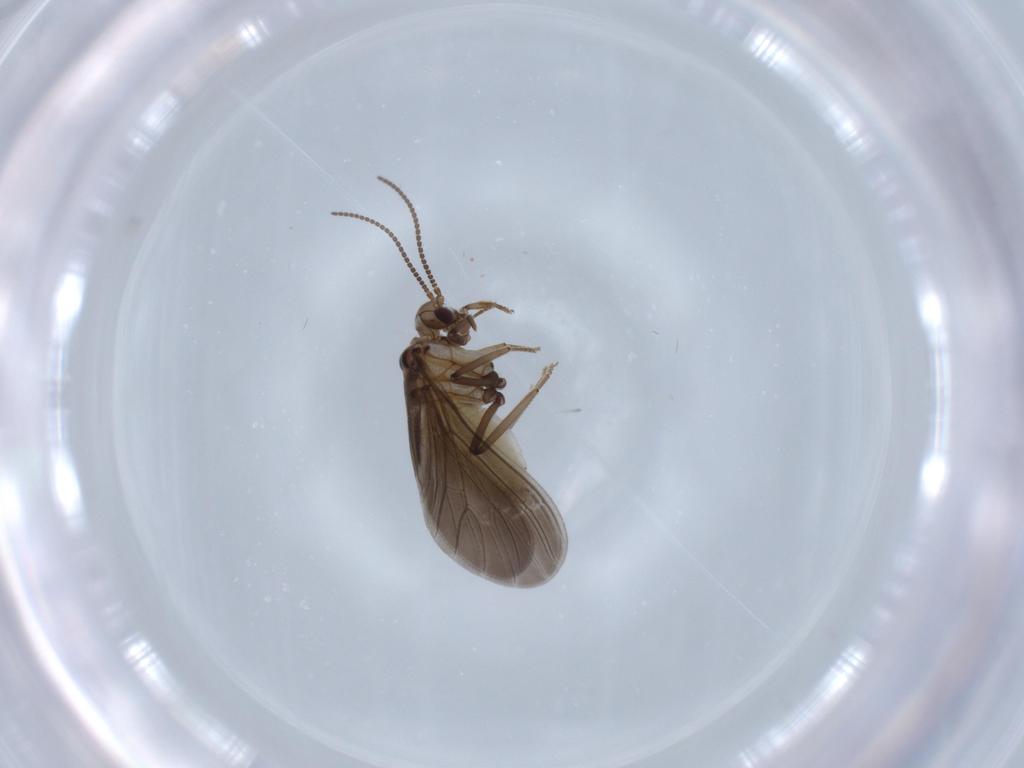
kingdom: Animalia
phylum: Arthropoda
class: Insecta
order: Neuroptera
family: Coniopterygidae
